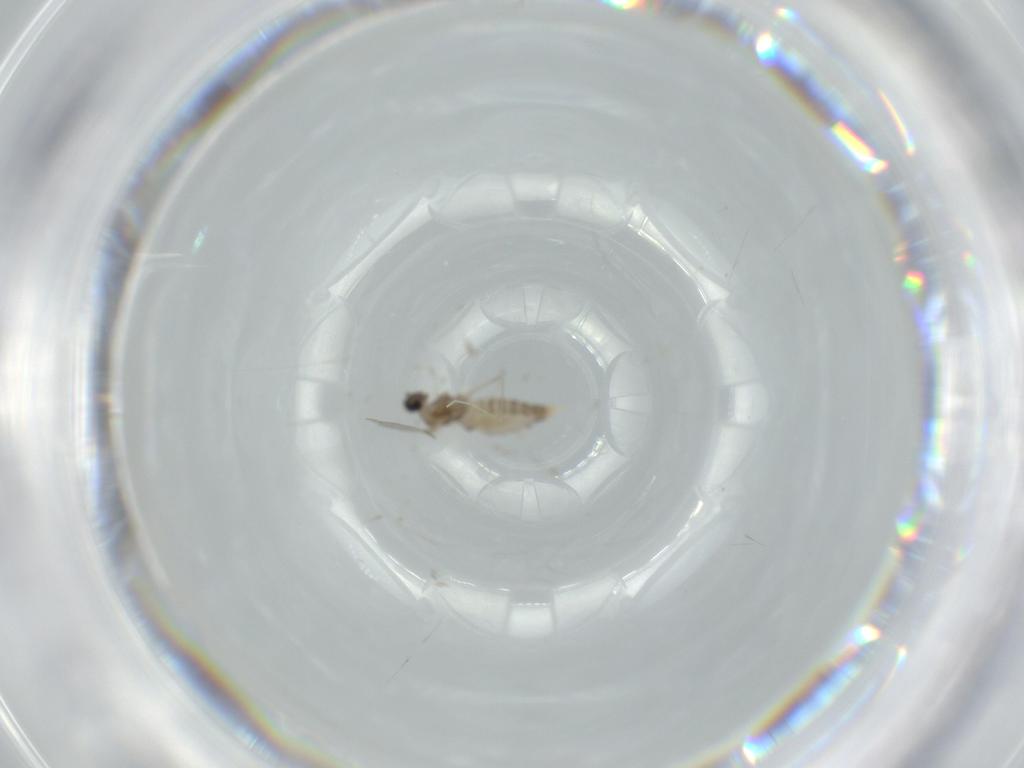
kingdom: Animalia
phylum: Arthropoda
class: Insecta
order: Diptera
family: Cecidomyiidae
